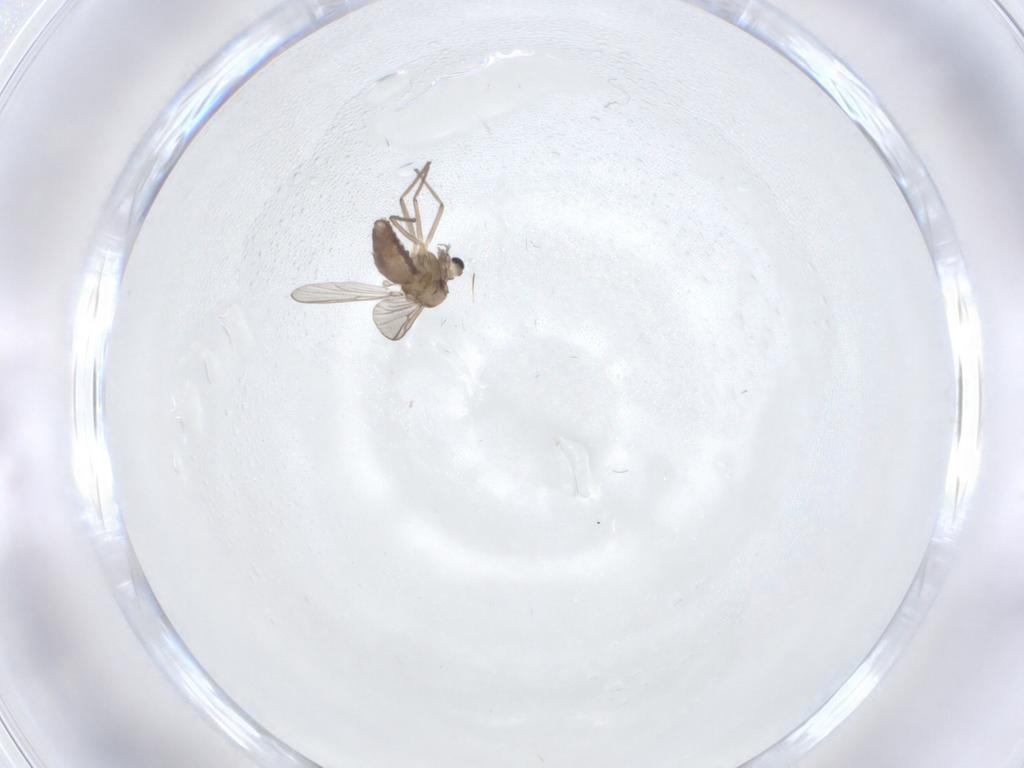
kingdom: Animalia
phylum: Arthropoda
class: Insecta
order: Diptera
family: Chironomidae
